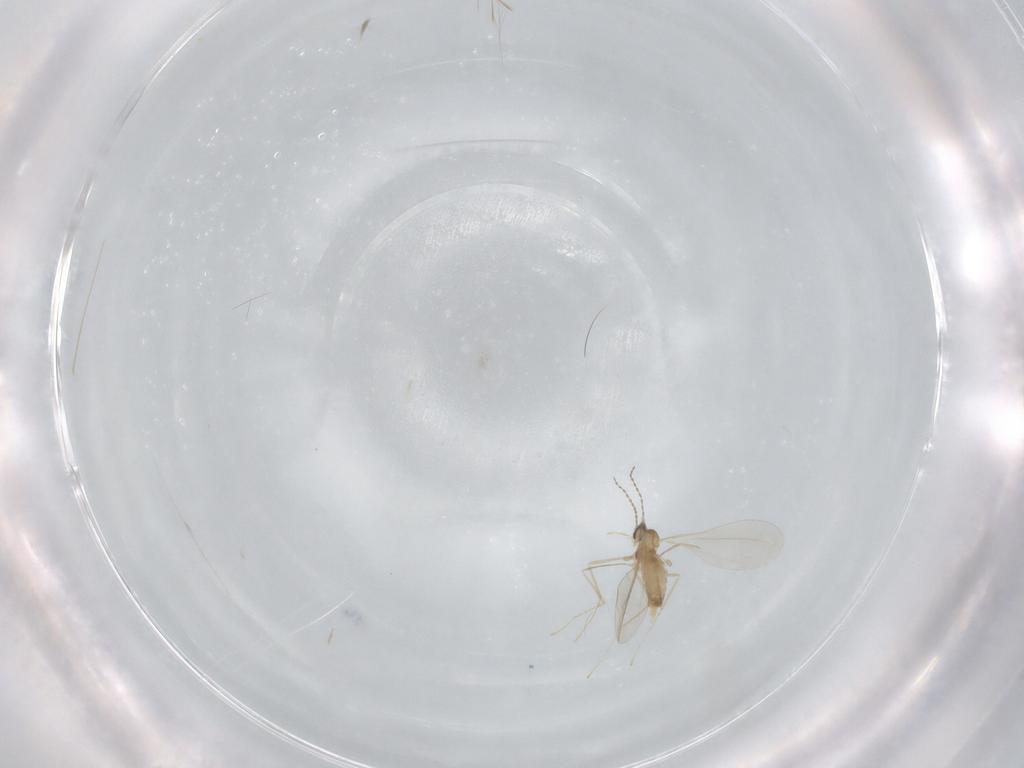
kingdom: Animalia
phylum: Arthropoda
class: Insecta
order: Diptera
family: Cecidomyiidae
